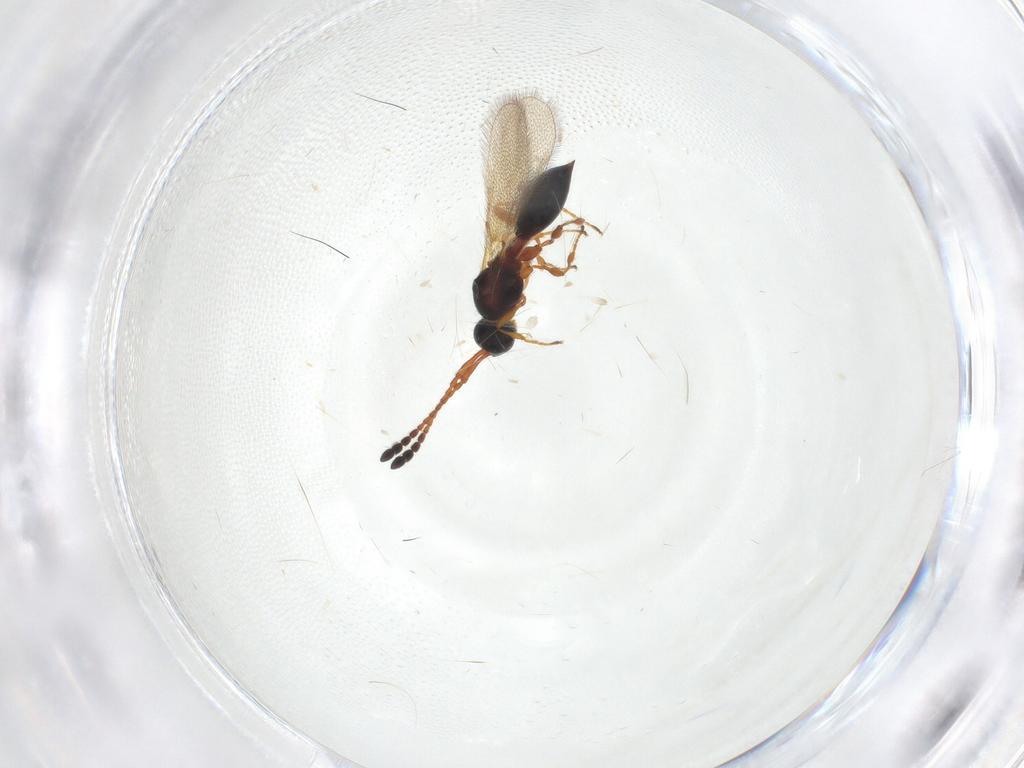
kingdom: Animalia
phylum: Arthropoda
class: Insecta
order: Hymenoptera
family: Diapriidae
